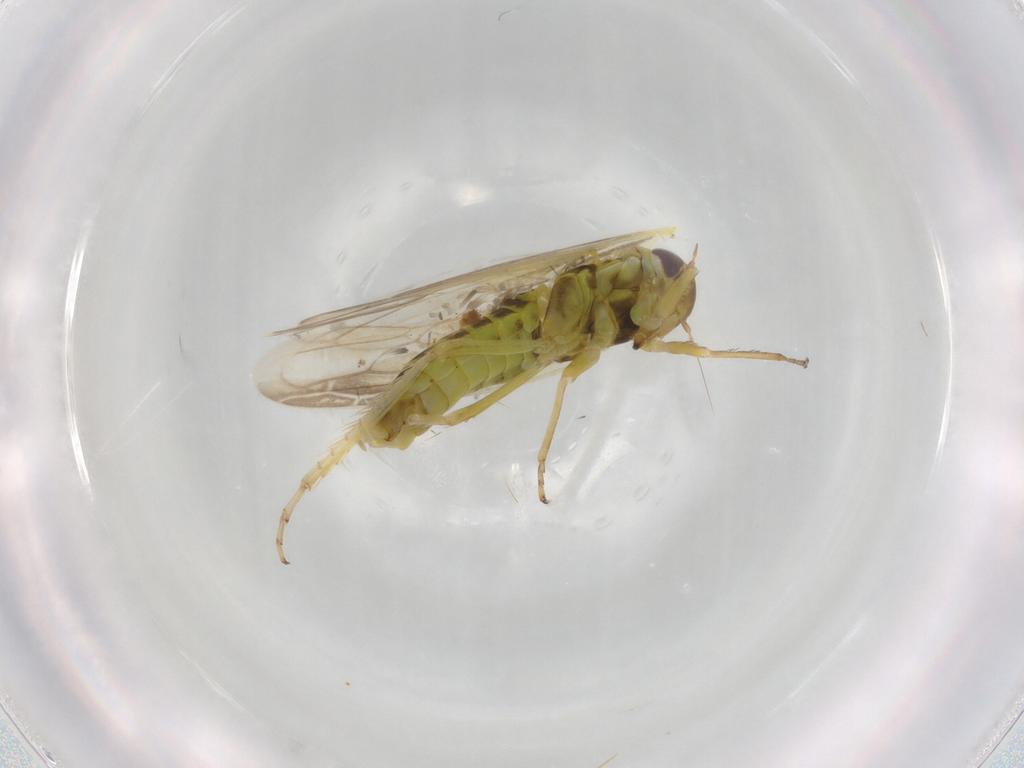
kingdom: Animalia
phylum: Arthropoda
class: Insecta
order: Hemiptera
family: Cicadellidae
